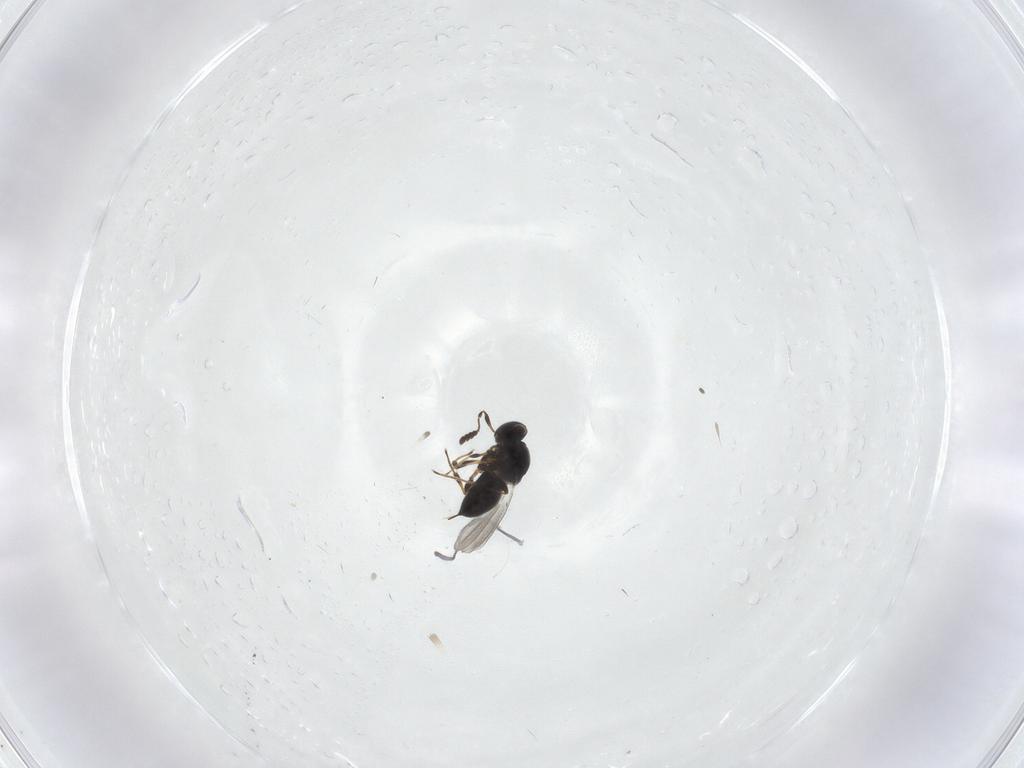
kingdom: Animalia
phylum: Arthropoda
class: Insecta
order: Hymenoptera
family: Platygastridae
